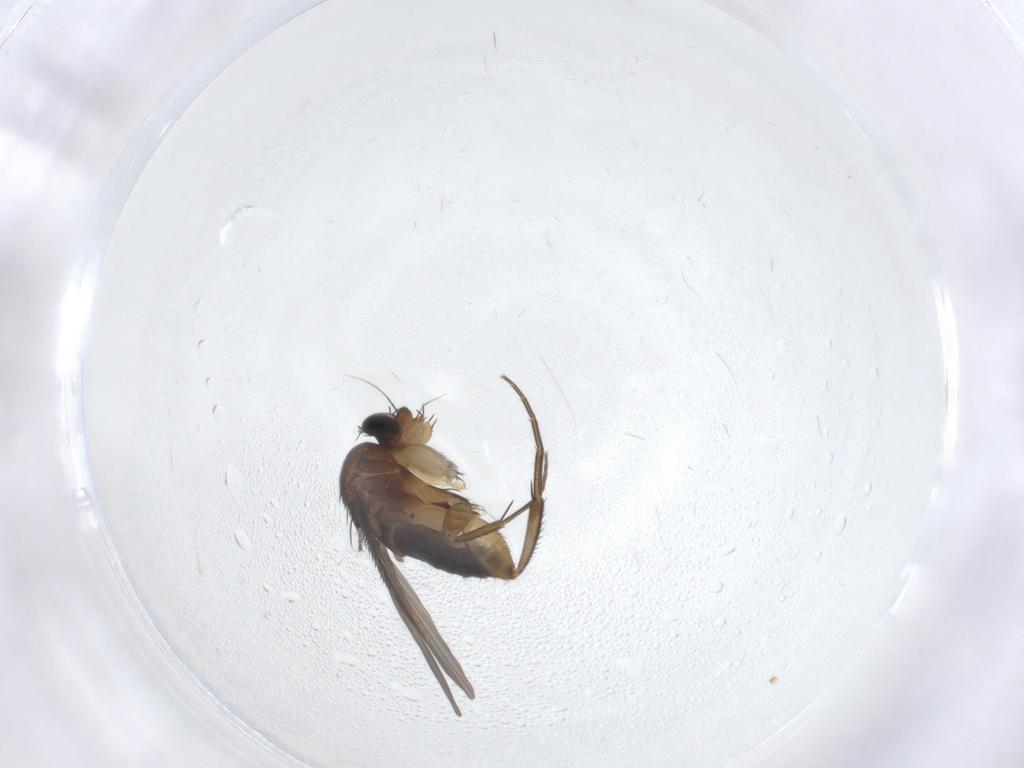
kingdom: Animalia
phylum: Arthropoda
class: Insecta
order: Diptera
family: Phoridae
